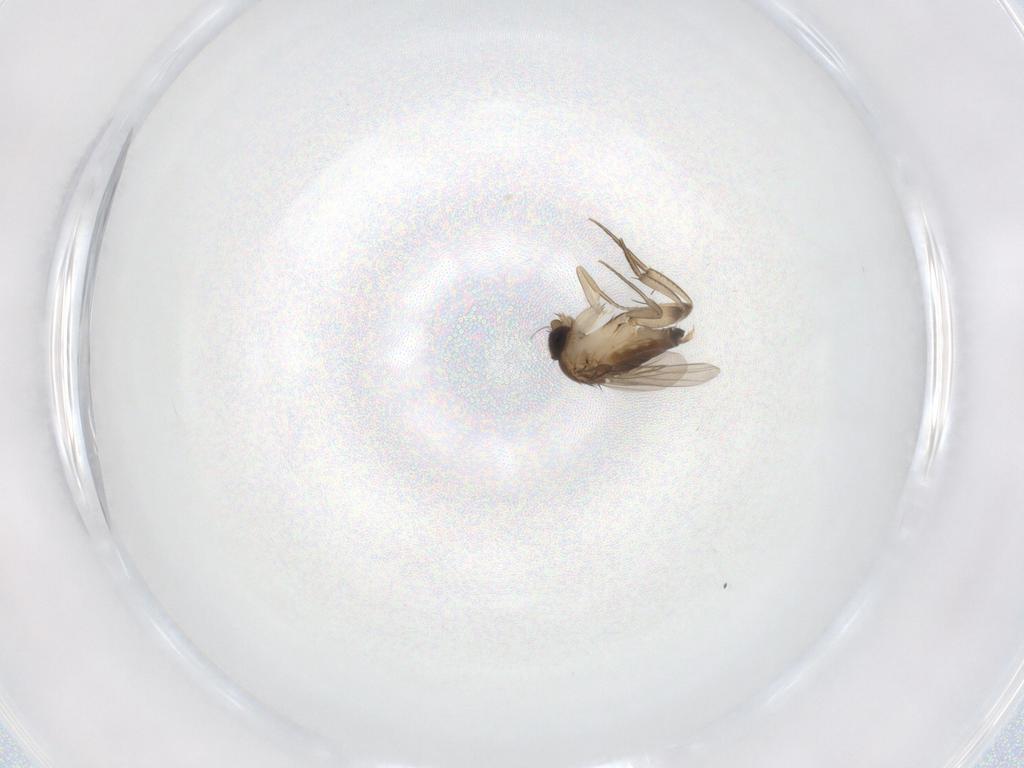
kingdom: Animalia
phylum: Arthropoda
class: Insecta
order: Diptera
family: Phoridae
